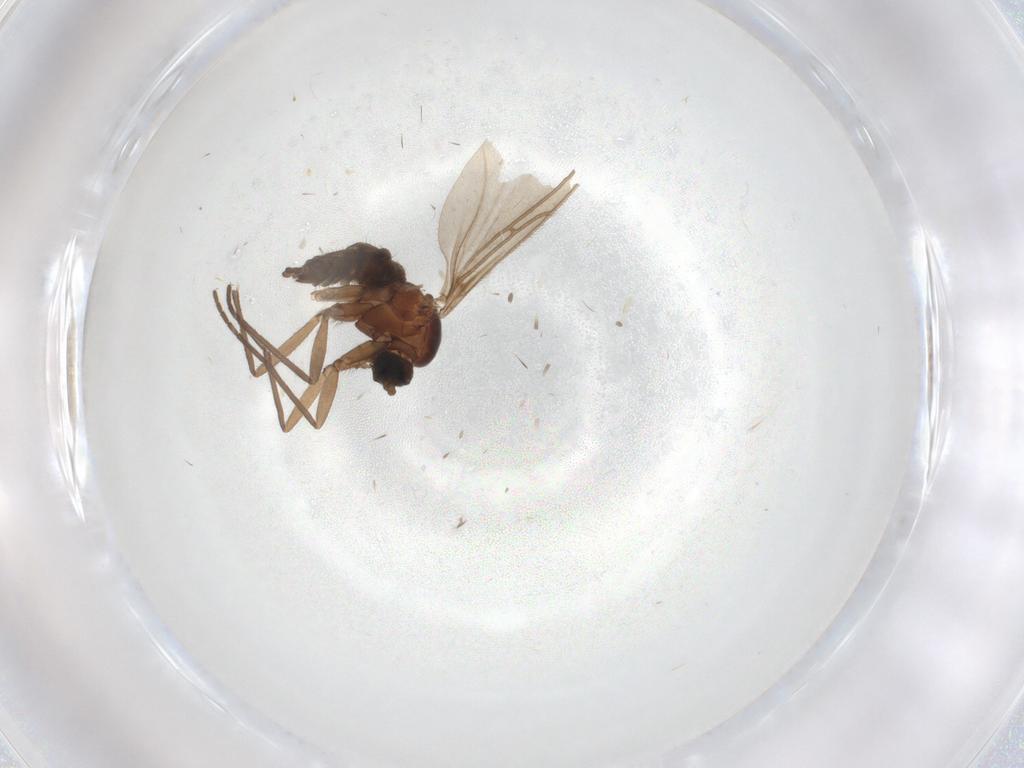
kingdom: Animalia
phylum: Arthropoda
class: Insecta
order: Diptera
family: Sciaridae
